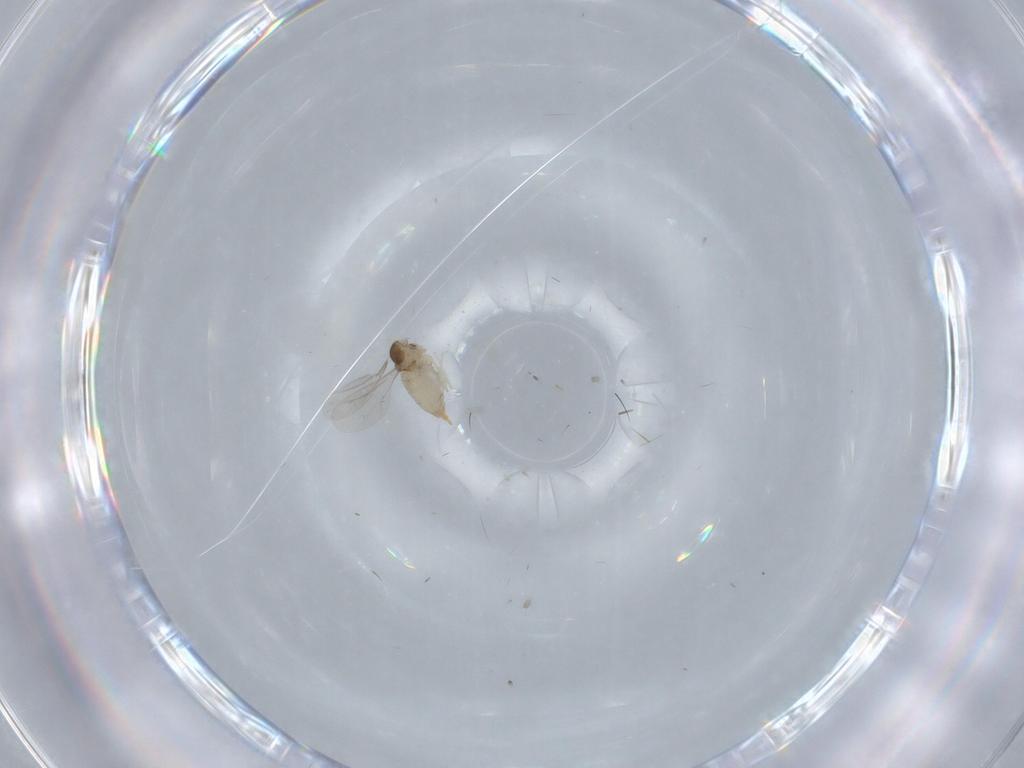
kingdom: Animalia
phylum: Arthropoda
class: Insecta
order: Diptera
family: Cecidomyiidae
